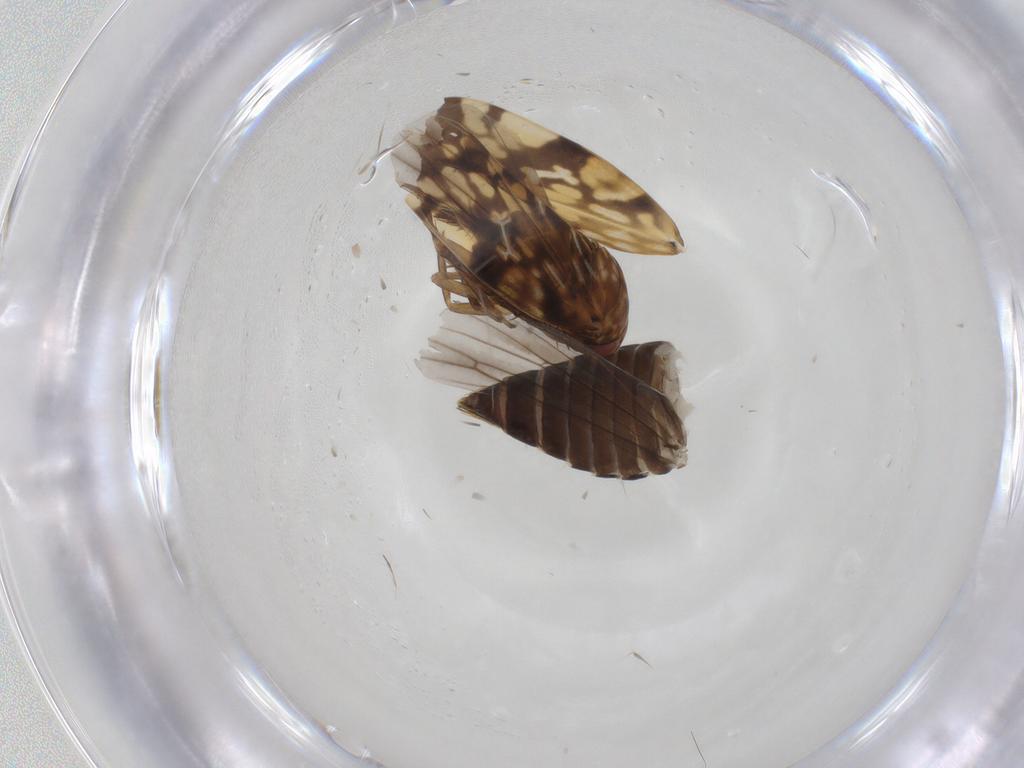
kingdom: Animalia
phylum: Arthropoda
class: Insecta
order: Hemiptera
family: Cicadellidae
